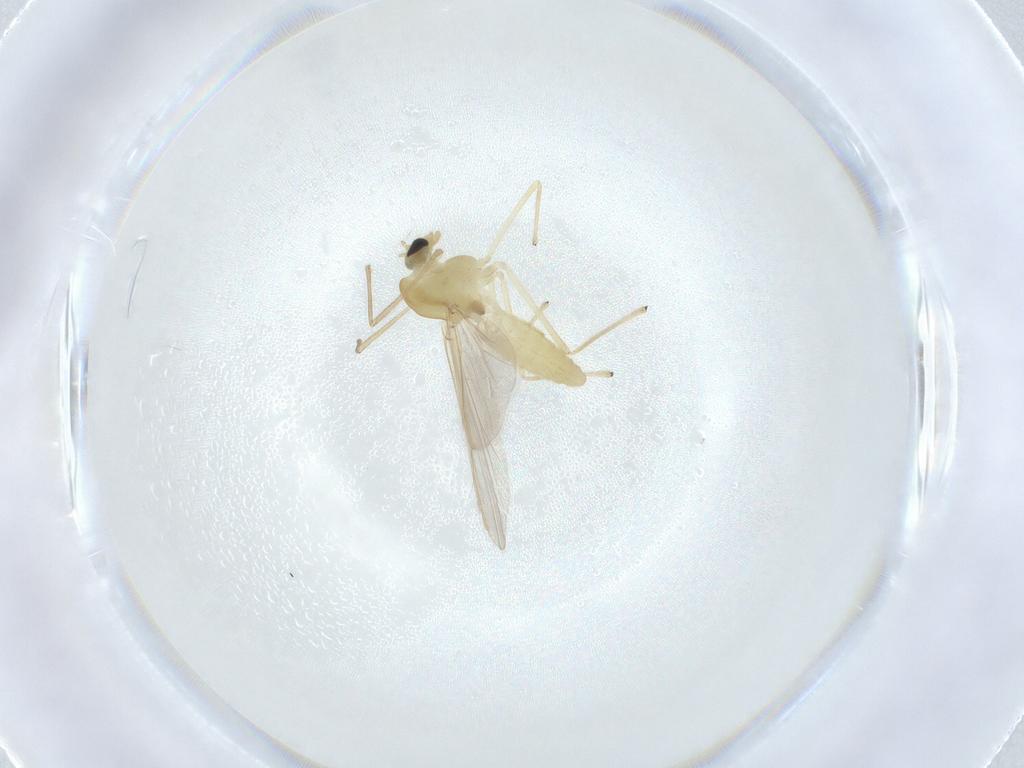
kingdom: Animalia
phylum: Arthropoda
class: Insecta
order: Diptera
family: Chironomidae
